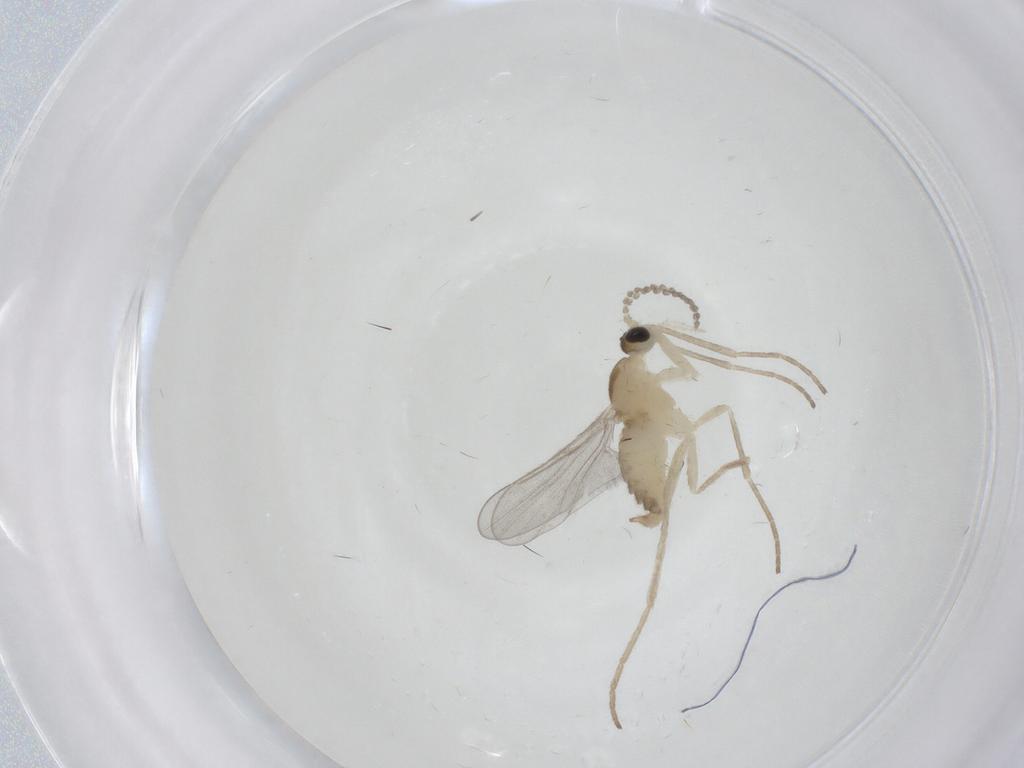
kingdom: Animalia
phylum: Arthropoda
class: Insecta
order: Diptera
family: Cecidomyiidae
